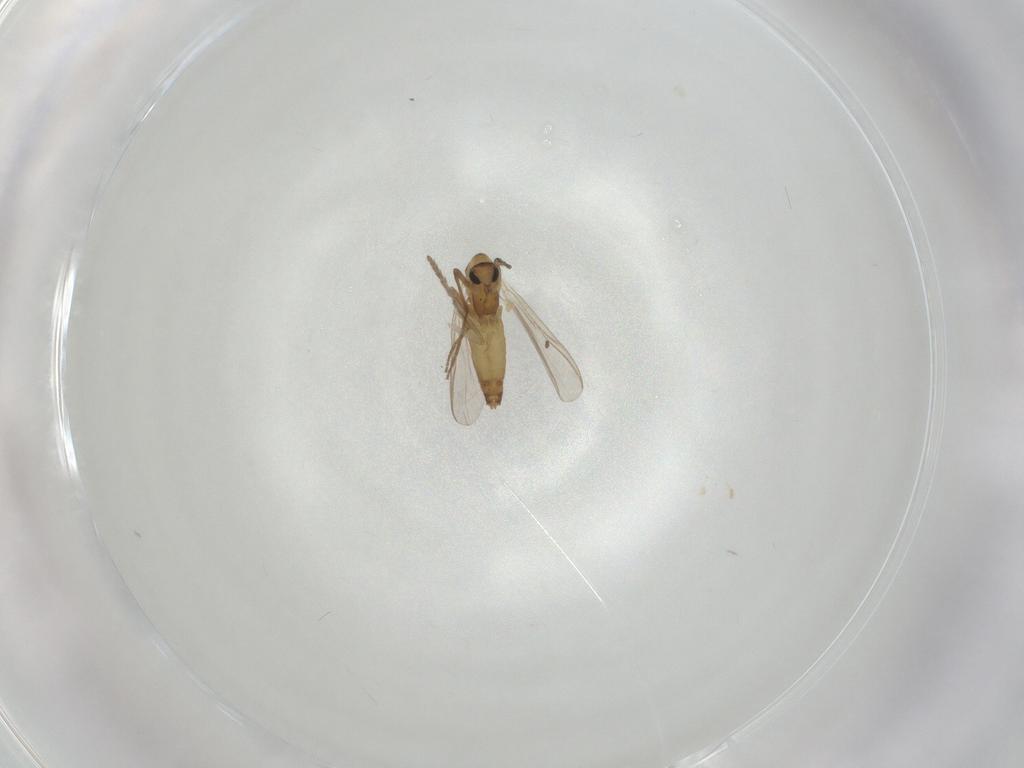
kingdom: Animalia
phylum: Arthropoda
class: Insecta
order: Diptera
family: Chironomidae
